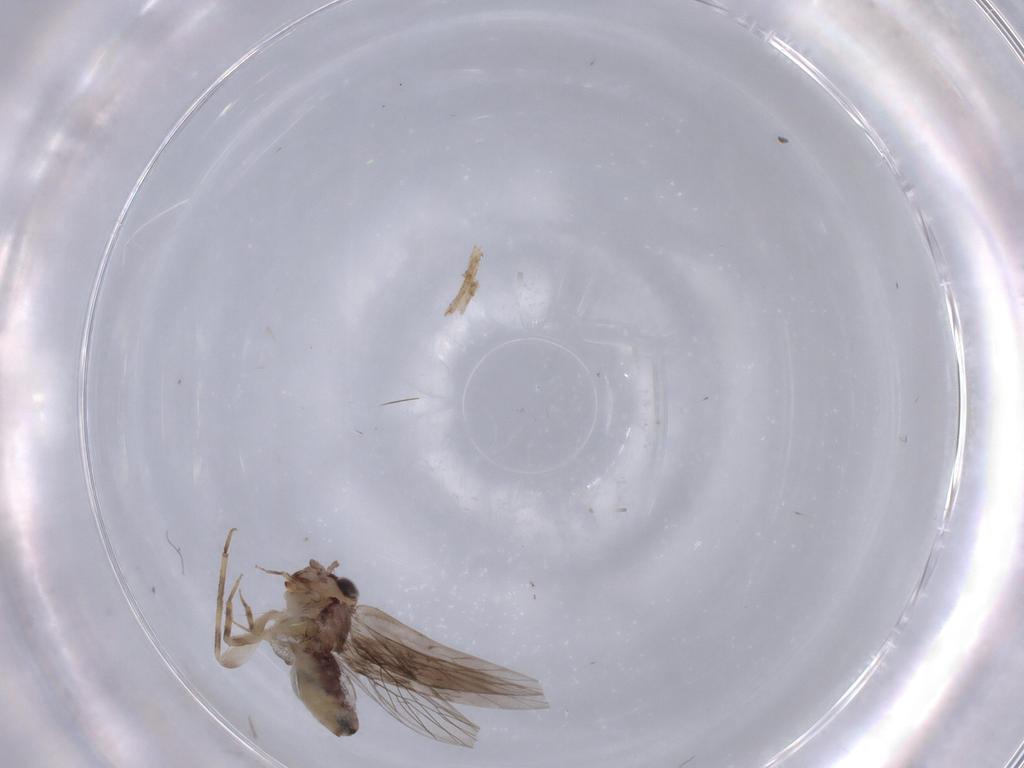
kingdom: Animalia
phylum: Arthropoda
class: Insecta
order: Psocodea
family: Lepidopsocidae
